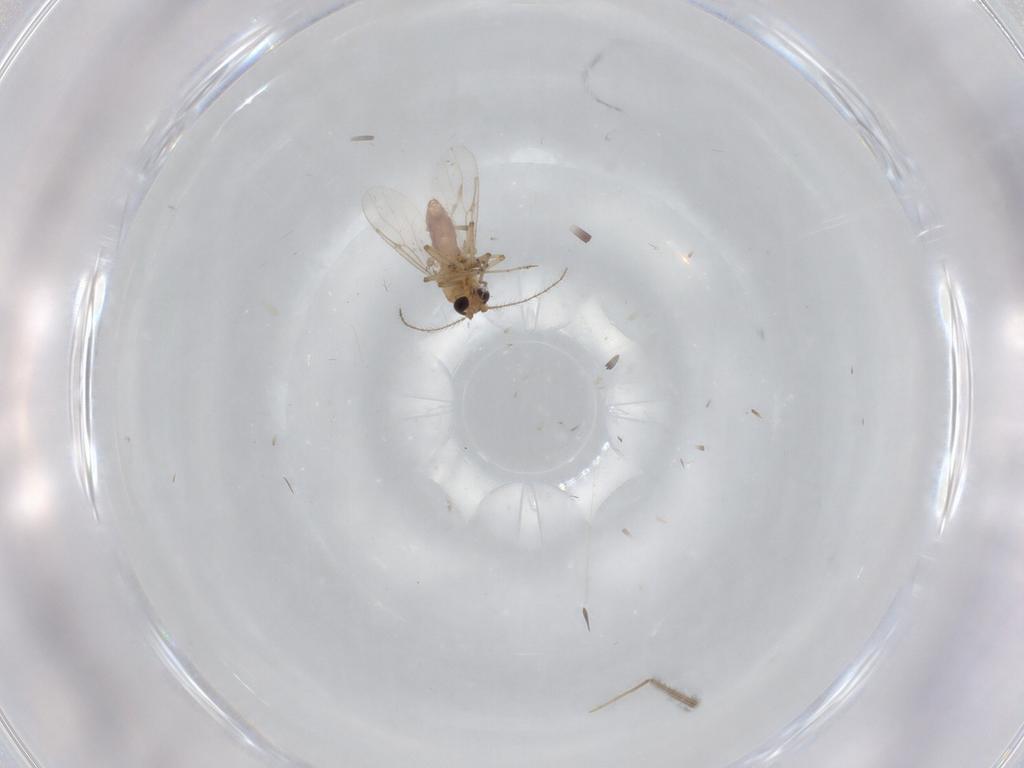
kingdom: Animalia
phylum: Arthropoda
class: Insecta
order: Diptera
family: Ceratopogonidae
